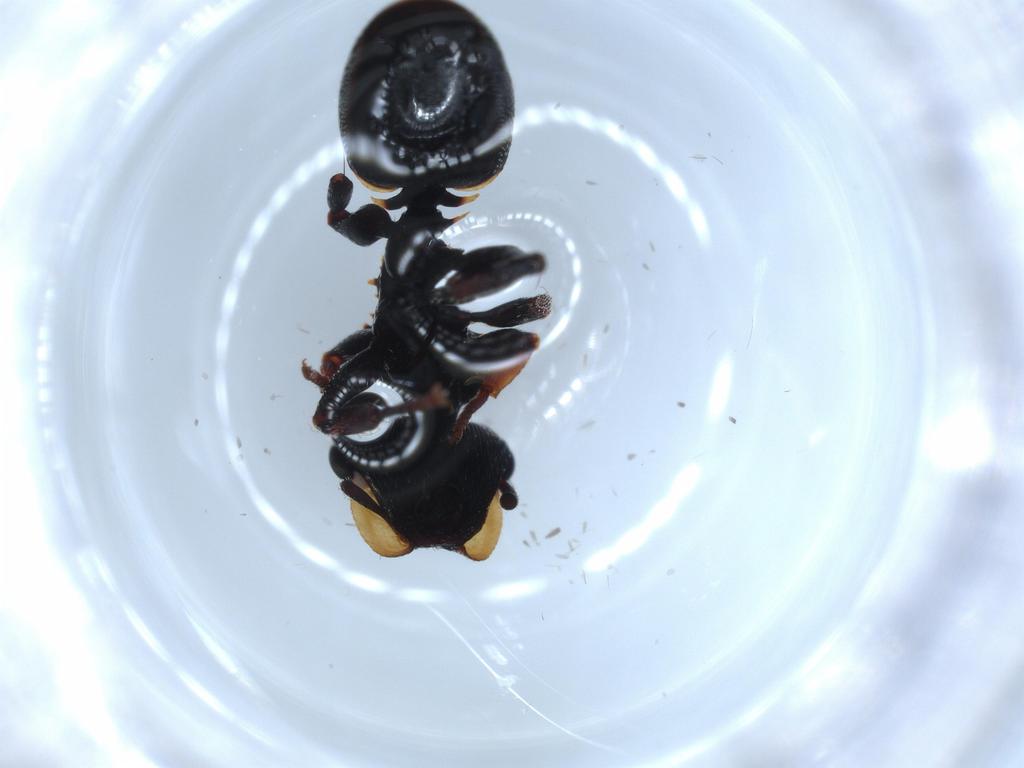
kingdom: Animalia
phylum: Arthropoda
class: Insecta
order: Hymenoptera
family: Formicidae
